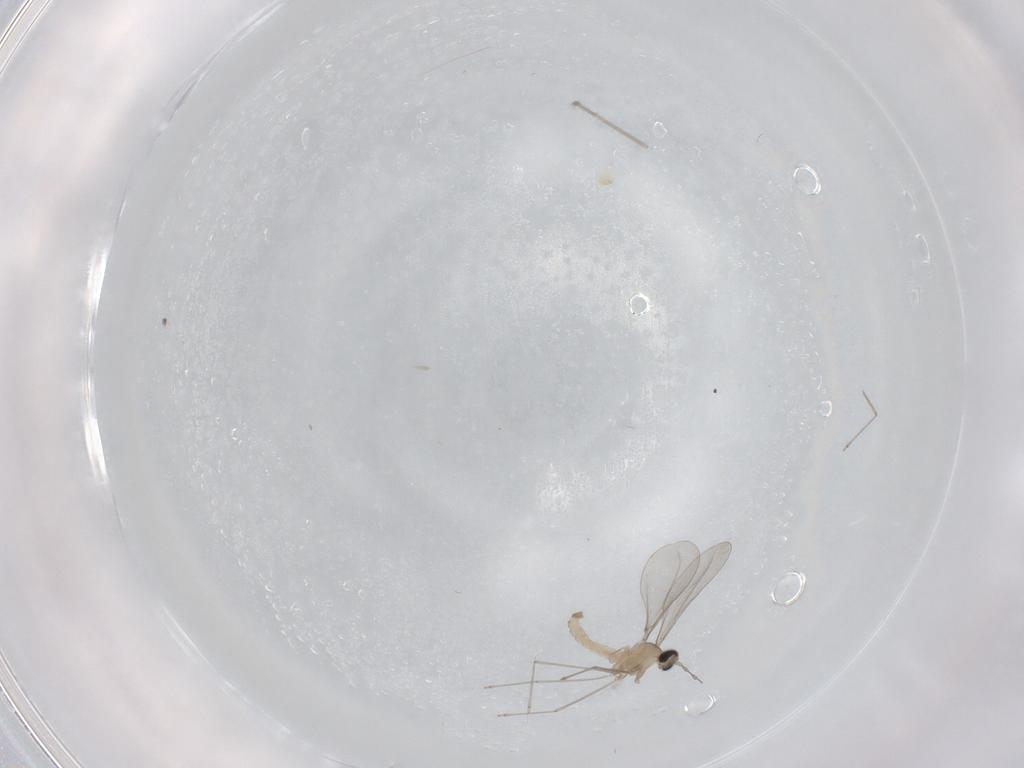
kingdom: Animalia
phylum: Arthropoda
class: Insecta
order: Diptera
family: Cecidomyiidae
